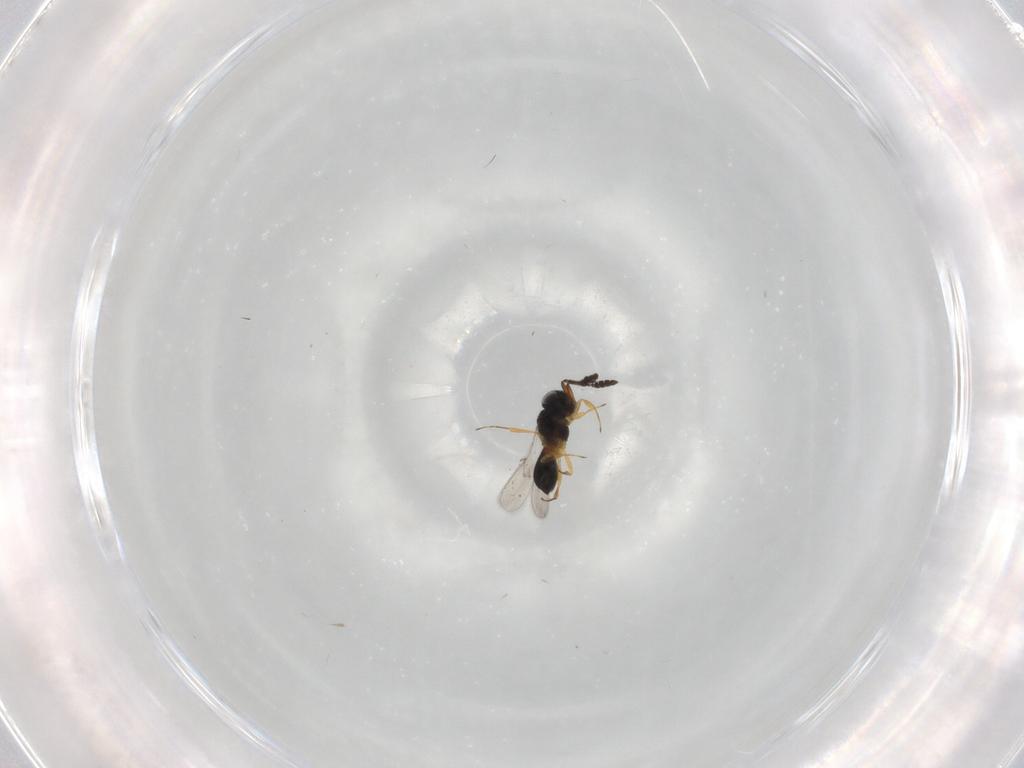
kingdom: Animalia
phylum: Arthropoda
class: Insecta
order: Hymenoptera
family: Scelionidae
